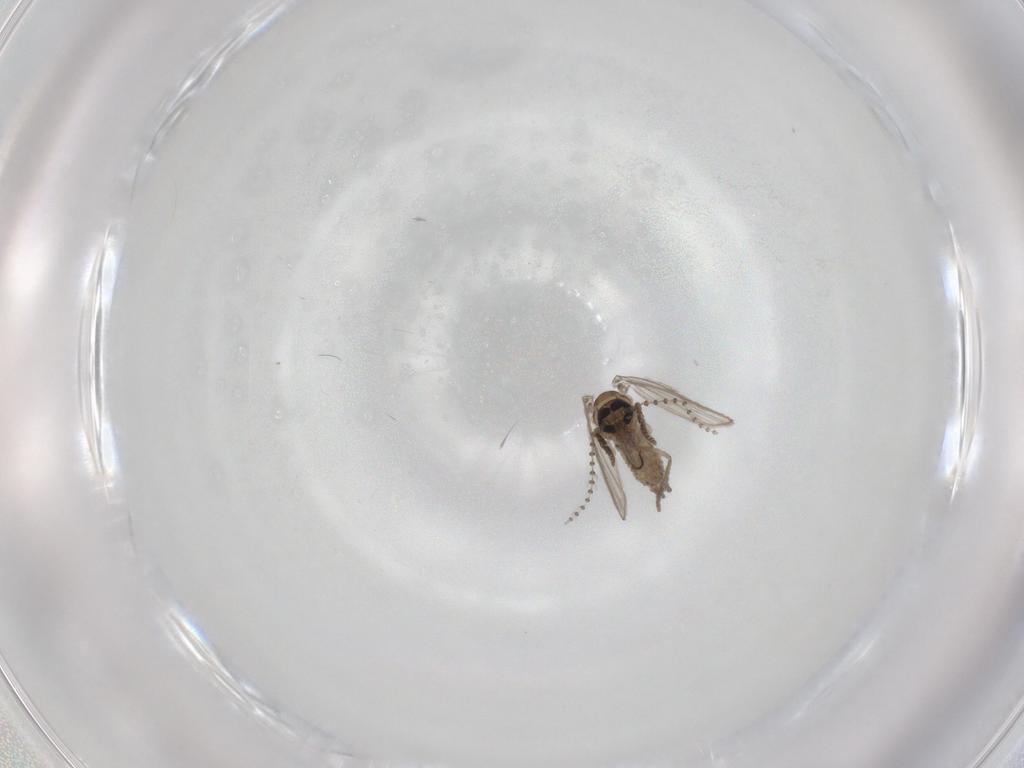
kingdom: Animalia
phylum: Arthropoda
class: Insecta
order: Diptera
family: Psychodidae
